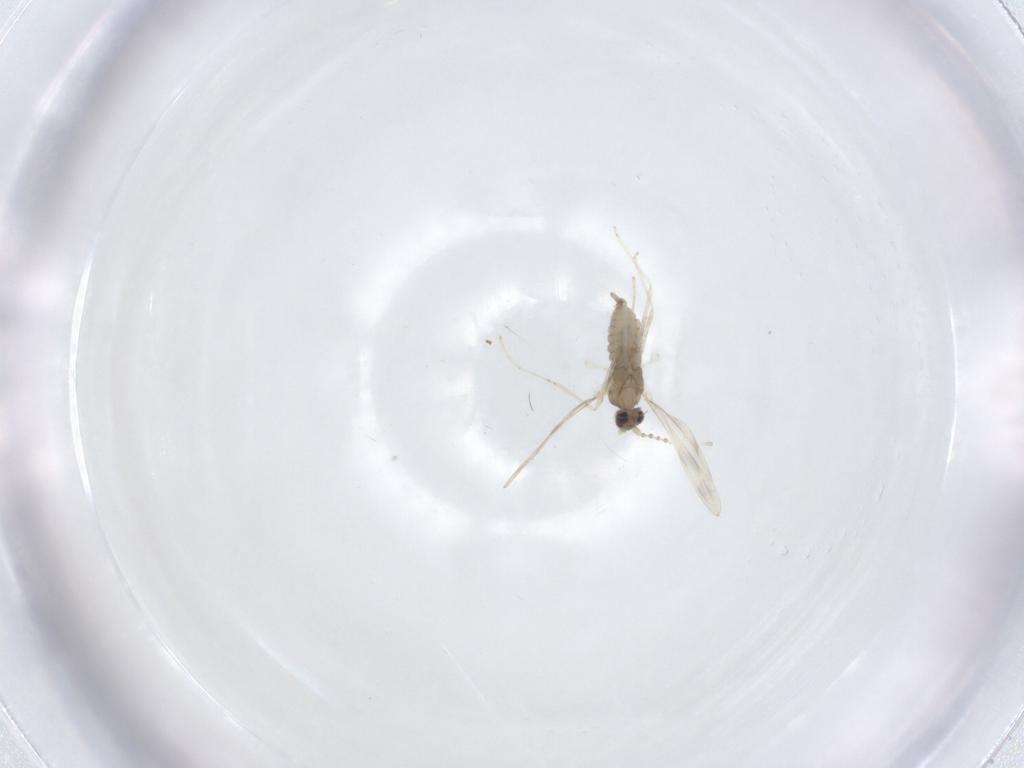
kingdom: Animalia
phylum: Arthropoda
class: Insecta
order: Diptera
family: Cecidomyiidae
